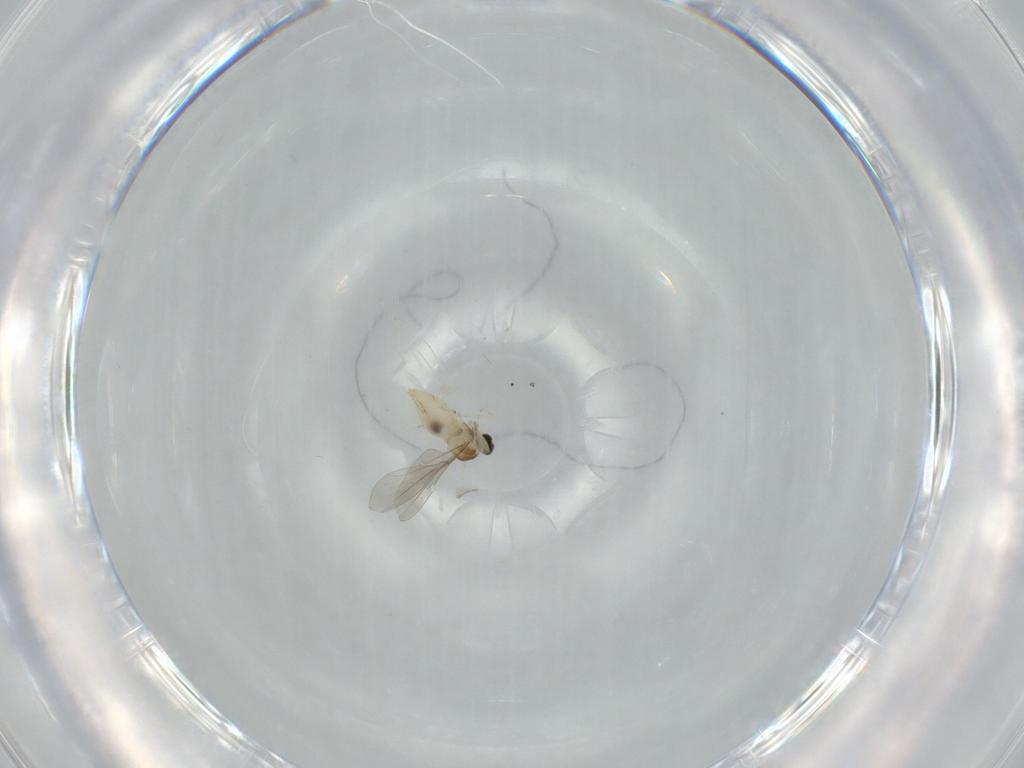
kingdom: Animalia
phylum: Arthropoda
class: Insecta
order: Diptera
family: Cecidomyiidae
